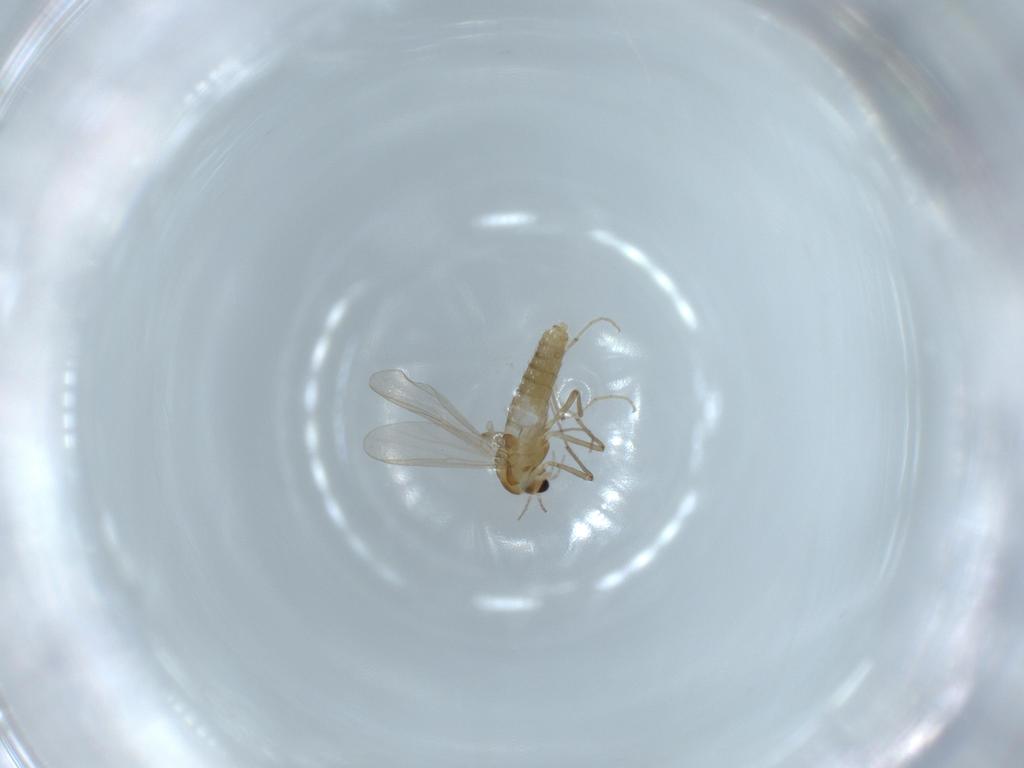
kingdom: Animalia
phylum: Arthropoda
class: Insecta
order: Diptera
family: Chironomidae
